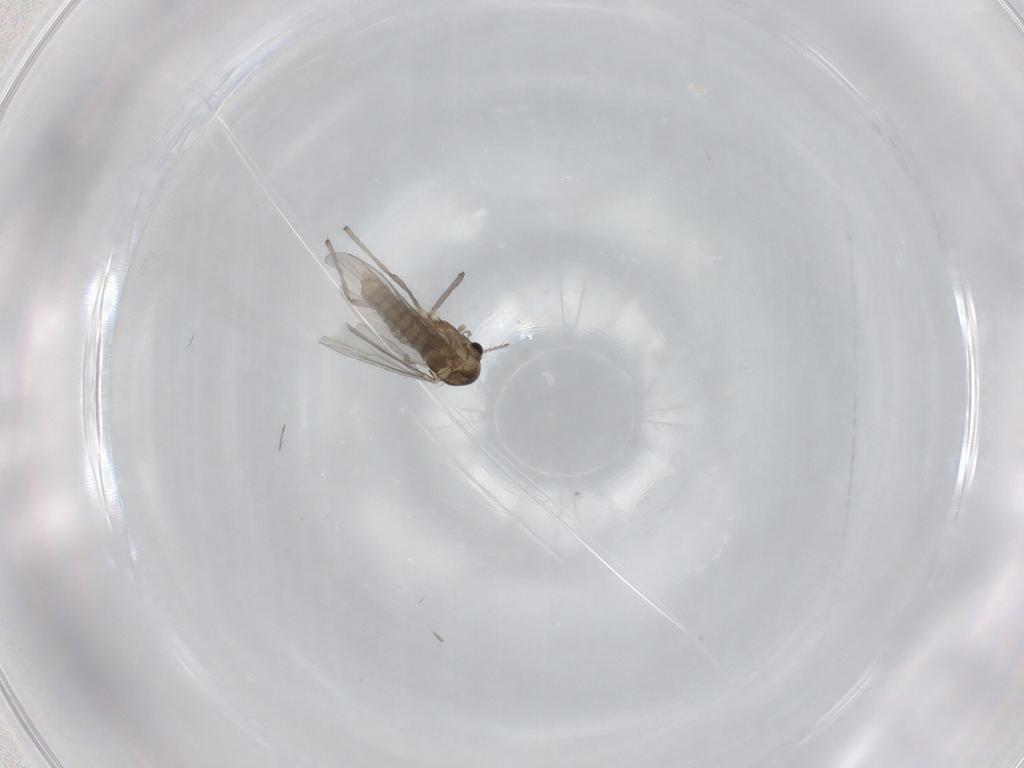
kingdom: Animalia
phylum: Arthropoda
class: Insecta
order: Diptera
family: Chironomidae
